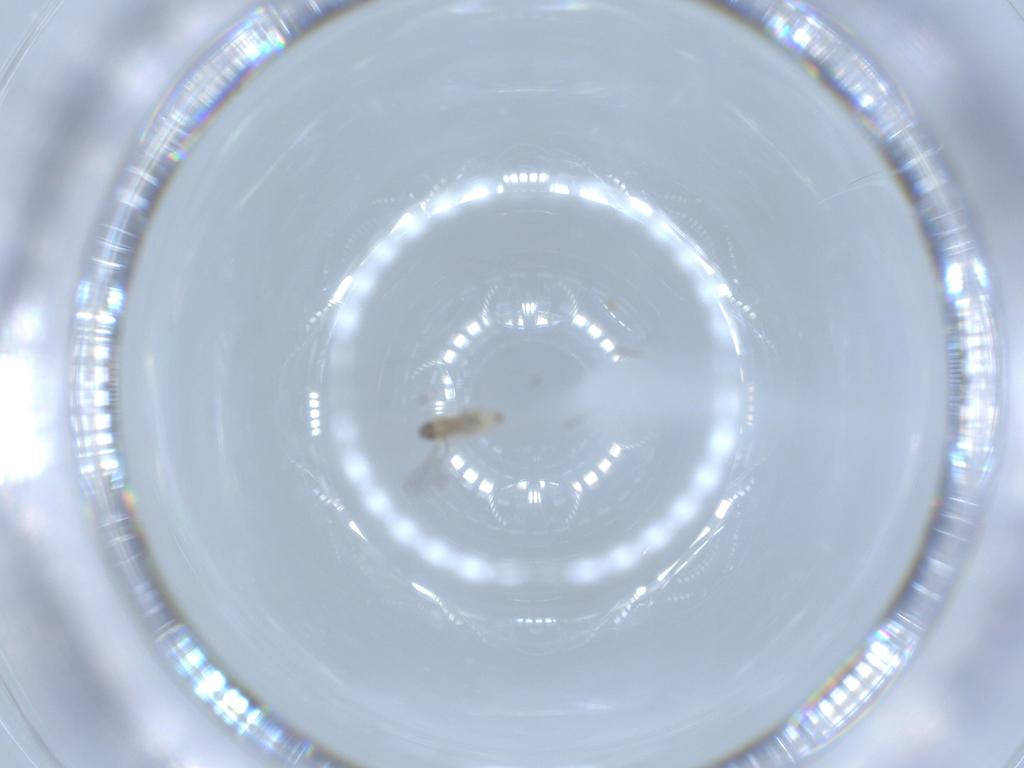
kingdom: Animalia
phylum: Arthropoda
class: Insecta
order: Diptera
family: Cecidomyiidae
